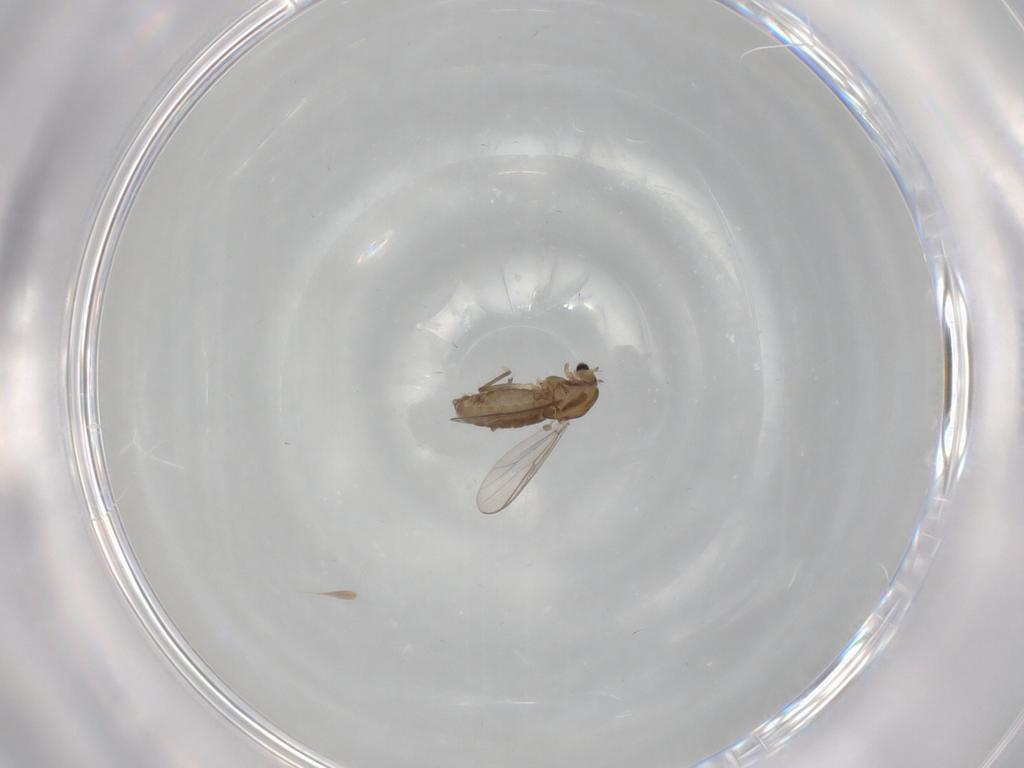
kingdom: Animalia
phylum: Arthropoda
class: Insecta
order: Diptera
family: Chironomidae
